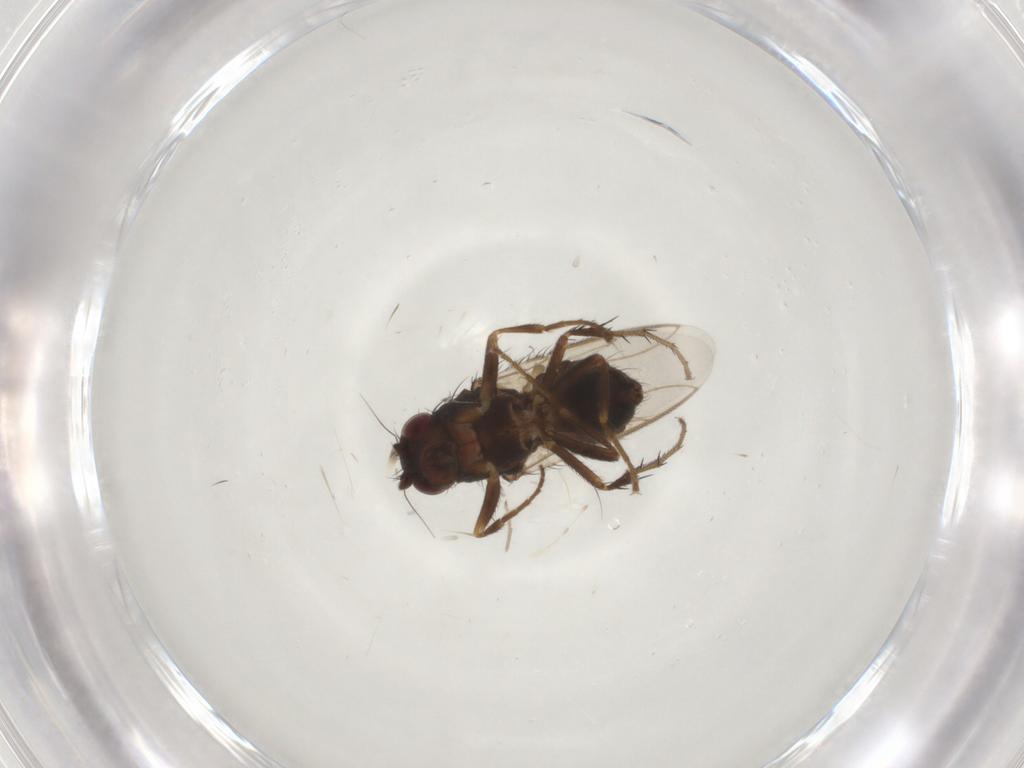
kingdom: Animalia
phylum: Arthropoda
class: Insecta
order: Diptera
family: Sphaeroceridae
